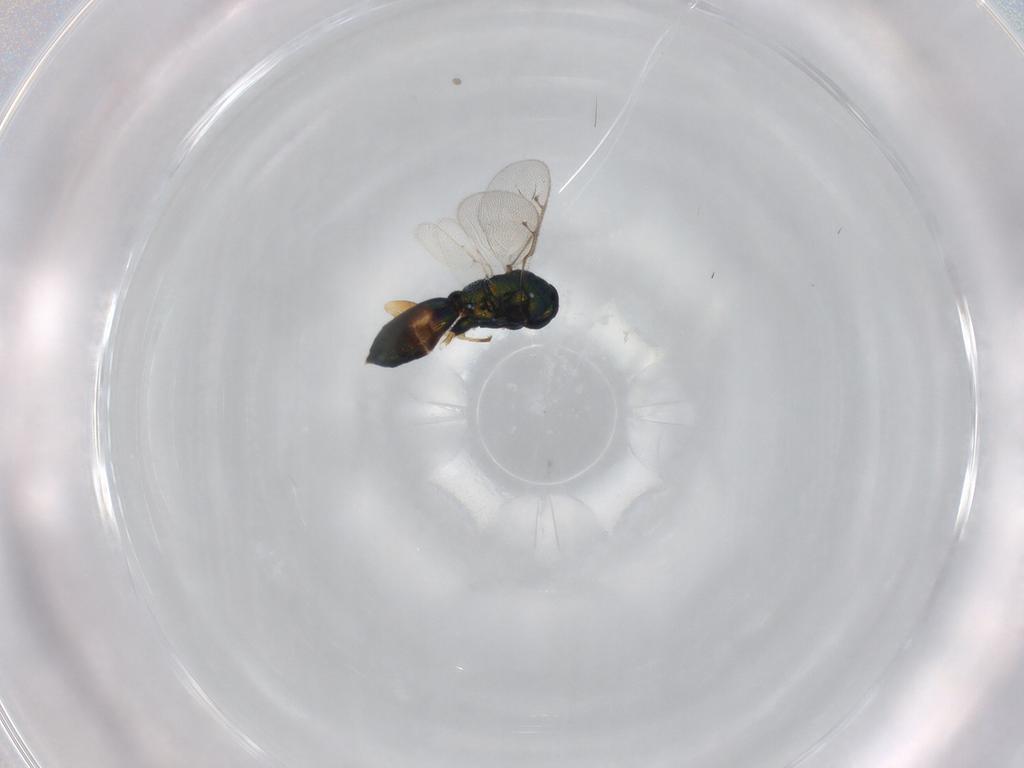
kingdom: Animalia
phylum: Arthropoda
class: Insecta
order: Hymenoptera
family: Pteromalidae
